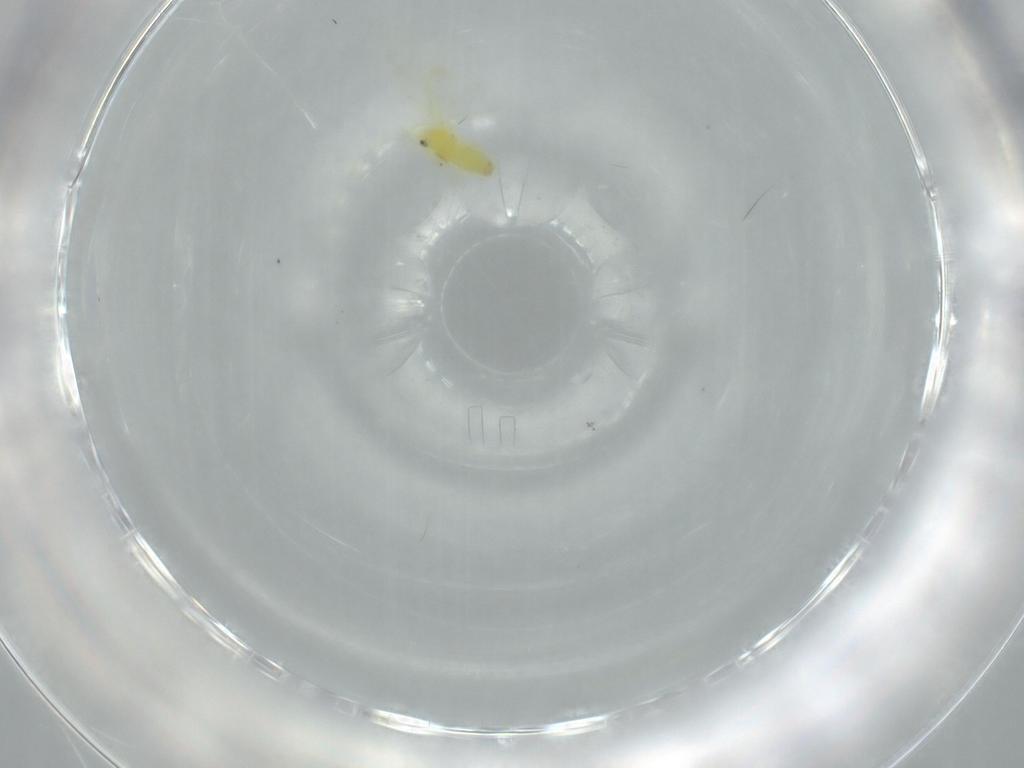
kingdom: Animalia
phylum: Arthropoda
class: Insecta
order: Hemiptera
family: Aleyrodidae
